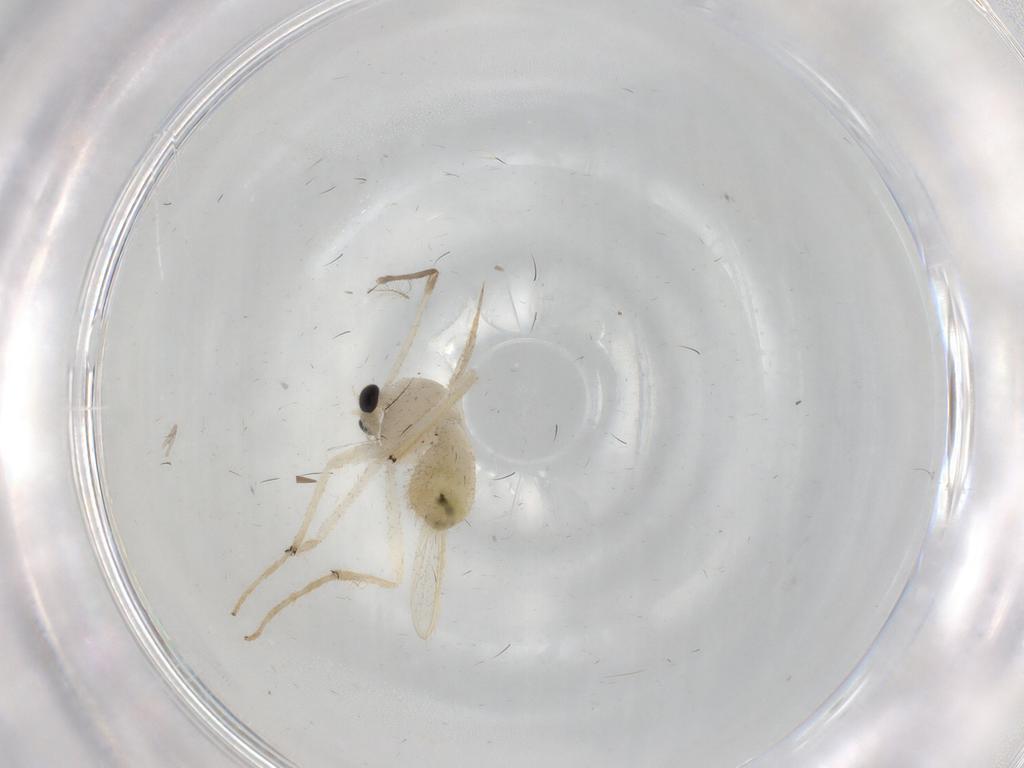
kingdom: Animalia
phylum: Arthropoda
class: Insecta
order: Diptera
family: Chironomidae
